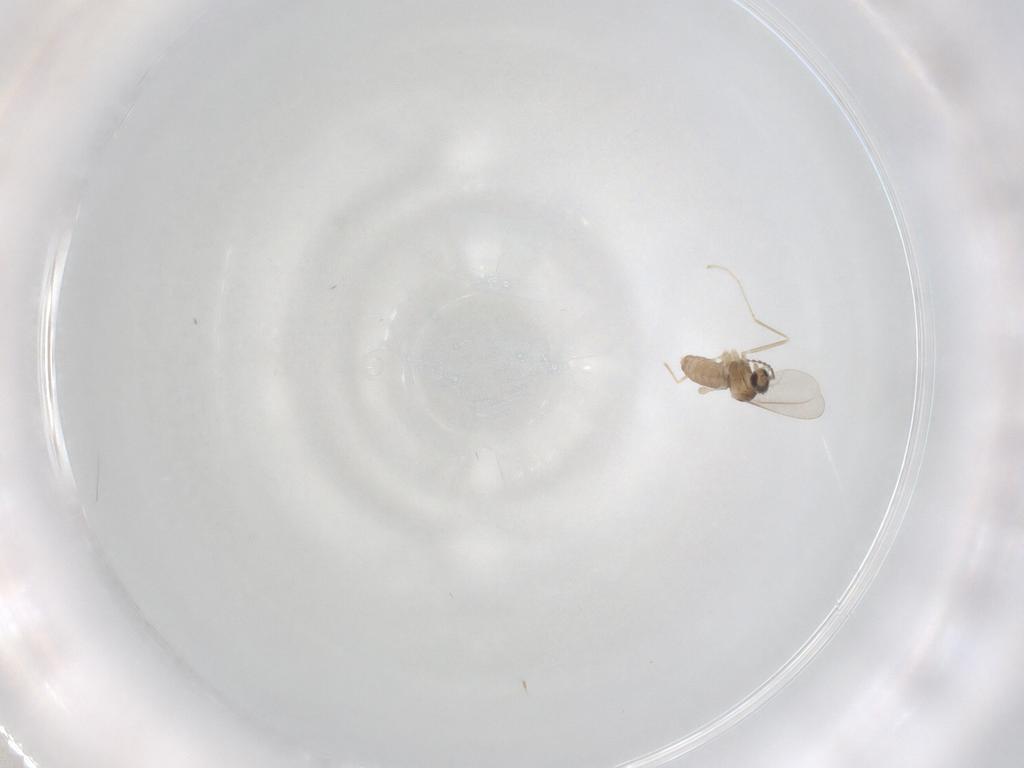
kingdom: Animalia
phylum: Arthropoda
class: Insecta
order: Diptera
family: Cecidomyiidae
